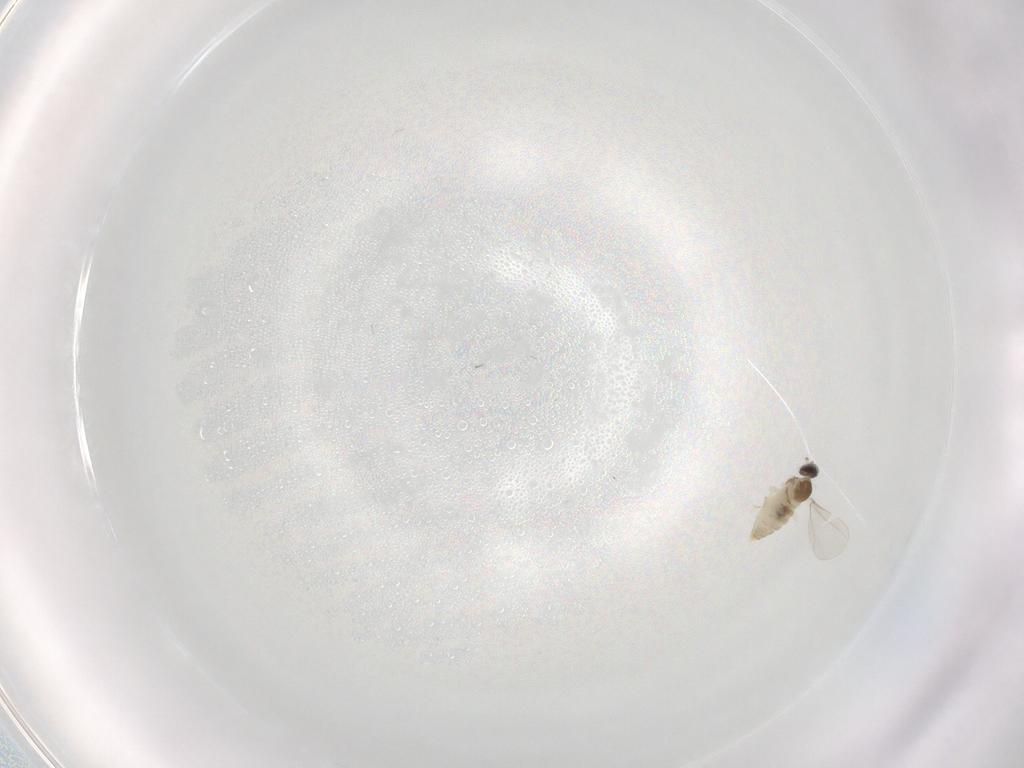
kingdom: Animalia
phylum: Arthropoda
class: Insecta
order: Diptera
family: Cecidomyiidae
